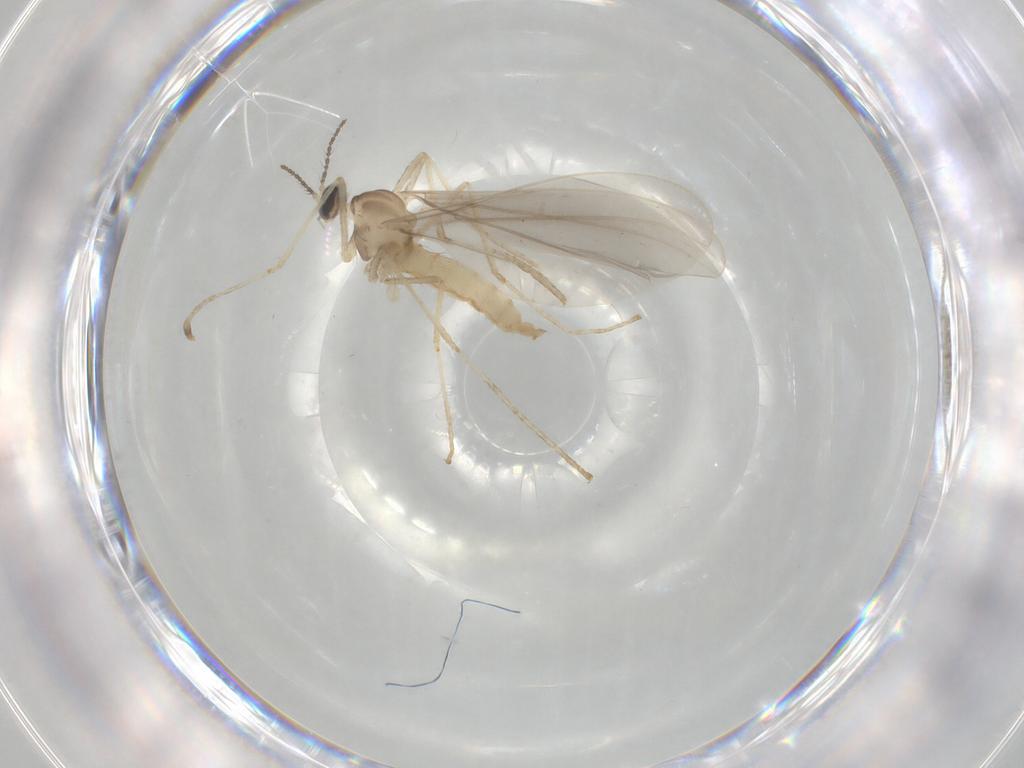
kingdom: Animalia
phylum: Arthropoda
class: Insecta
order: Diptera
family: Cecidomyiidae
